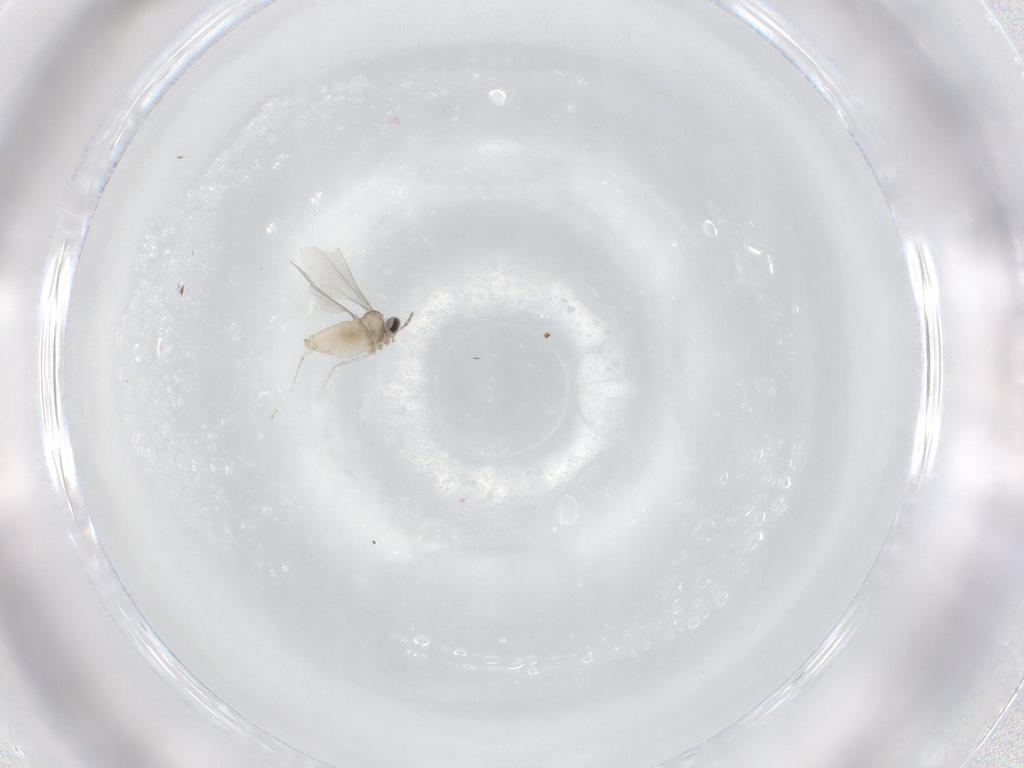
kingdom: Animalia
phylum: Arthropoda
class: Insecta
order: Diptera
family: Cecidomyiidae
